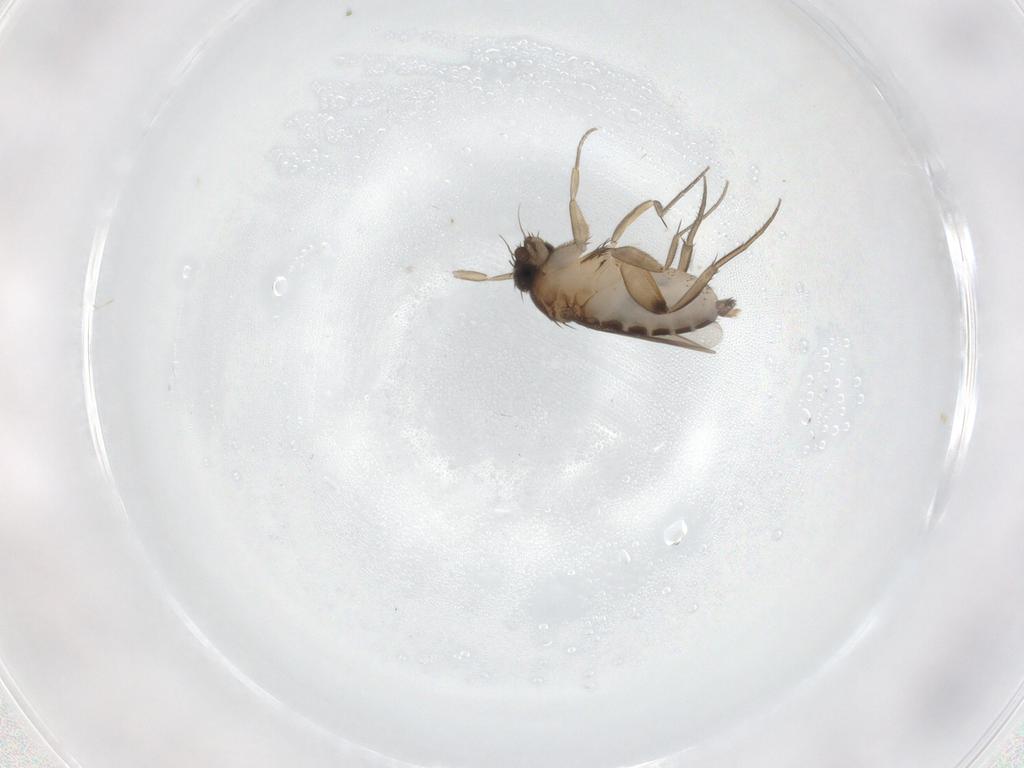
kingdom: Animalia
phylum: Arthropoda
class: Insecta
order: Diptera
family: Phoridae
